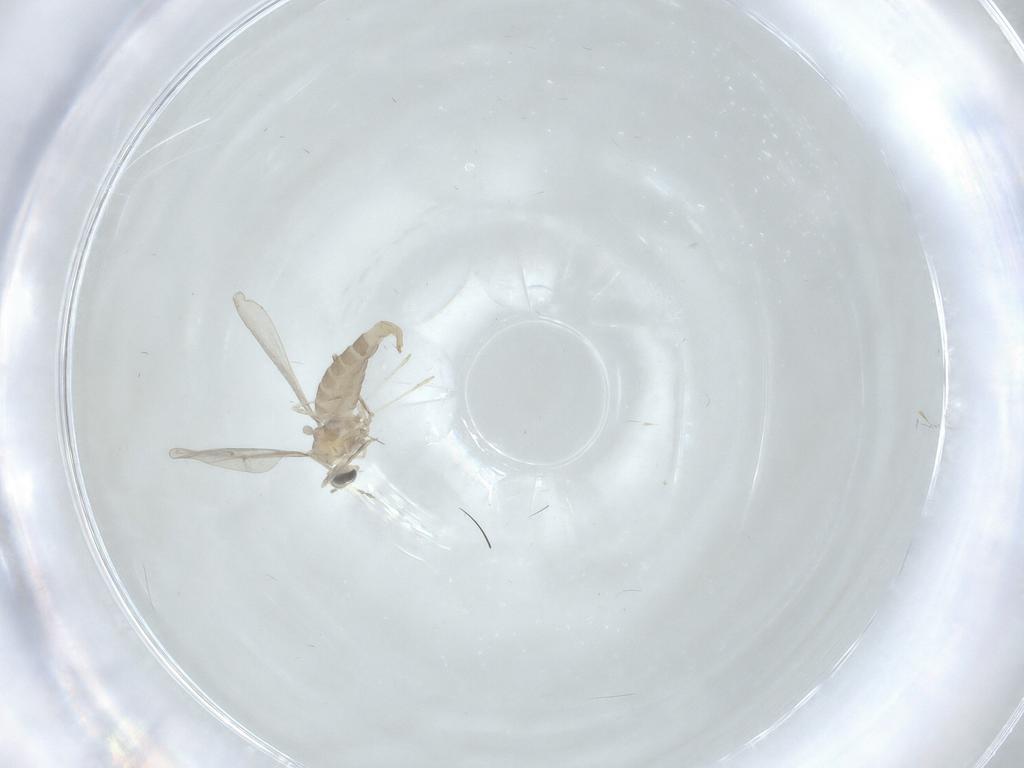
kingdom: Animalia
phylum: Arthropoda
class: Insecta
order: Diptera
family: Cecidomyiidae
